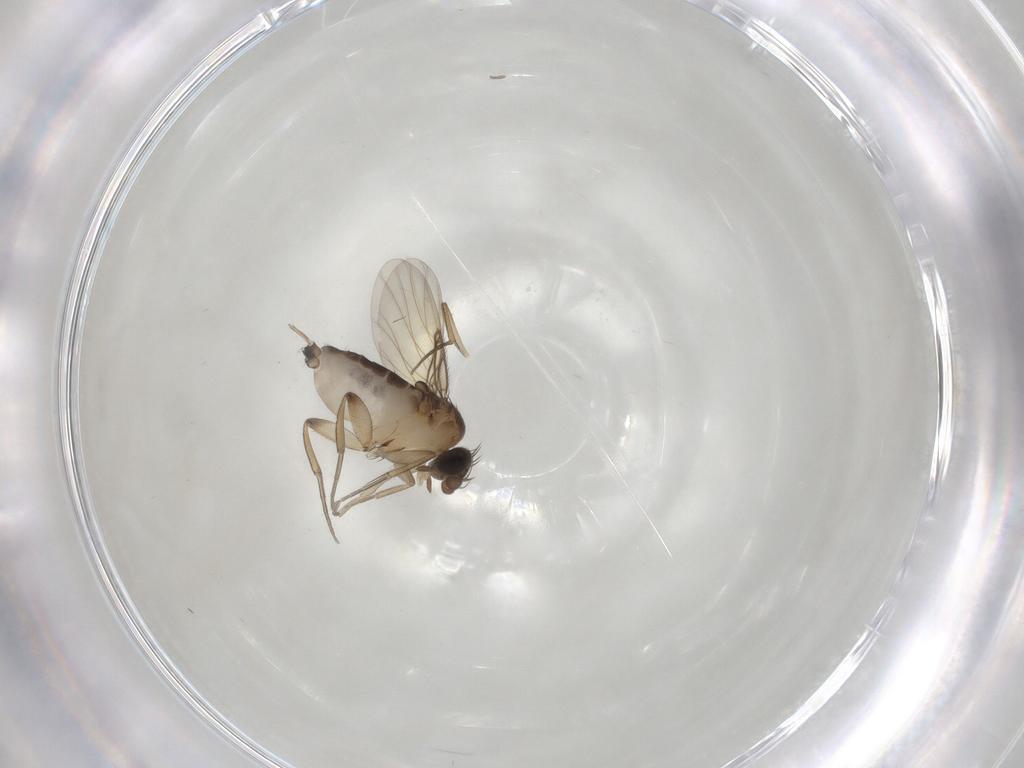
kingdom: Animalia
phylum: Arthropoda
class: Insecta
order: Diptera
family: Phoridae
